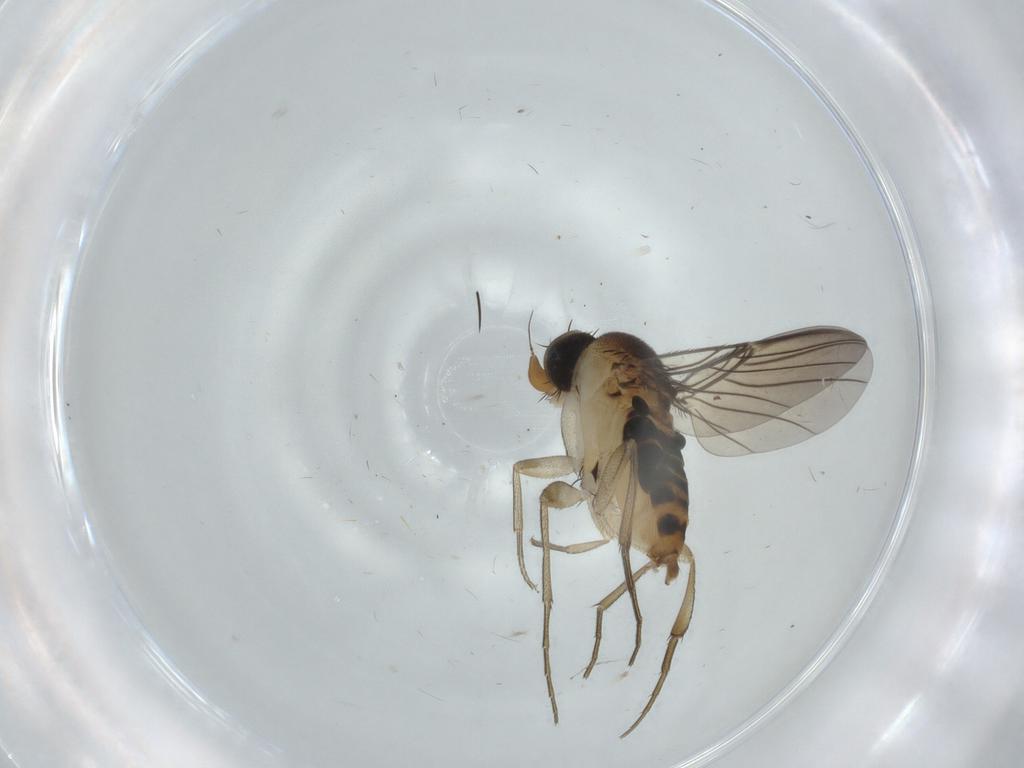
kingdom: Animalia
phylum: Arthropoda
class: Insecta
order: Diptera
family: Phoridae
